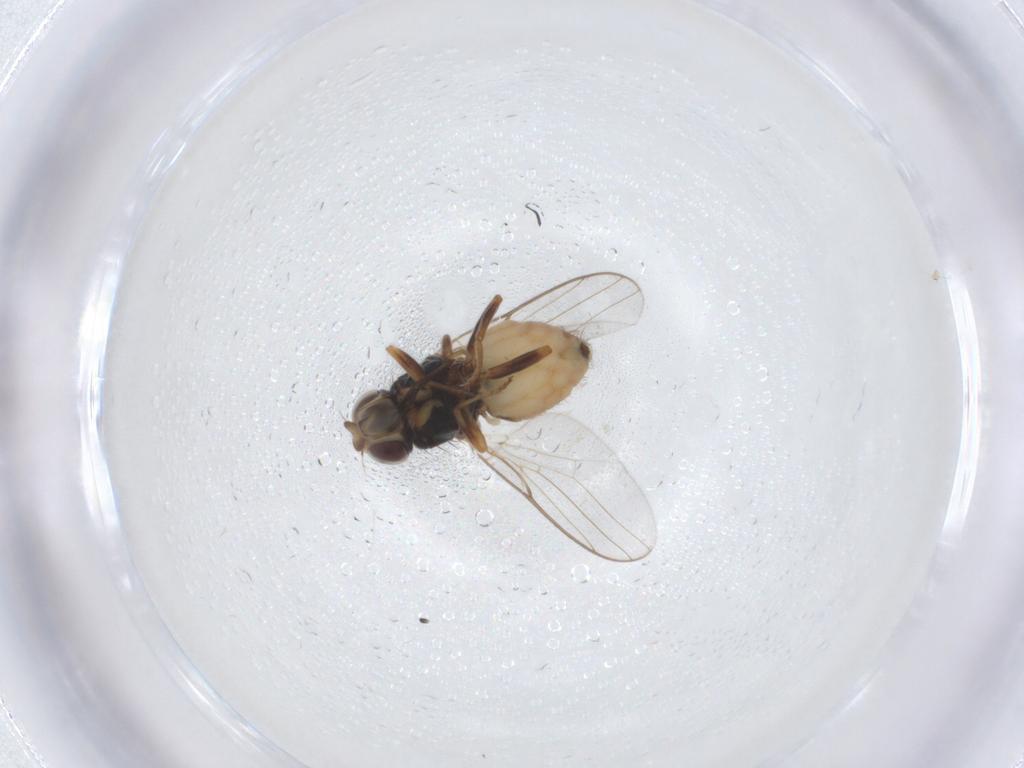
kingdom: Animalia
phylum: Arthropoda
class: Insecta
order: Diptera
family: Chloropidae
